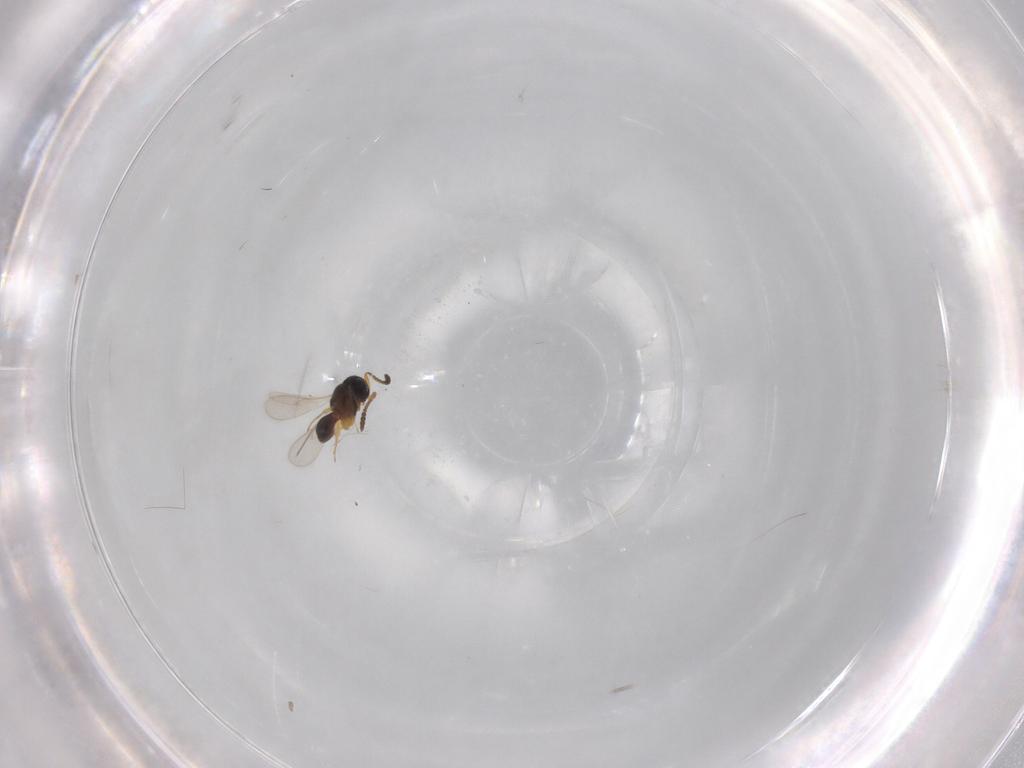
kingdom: Animalia
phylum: Arthropoda
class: Insecta
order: Hymenoptera
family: Scelionidae
